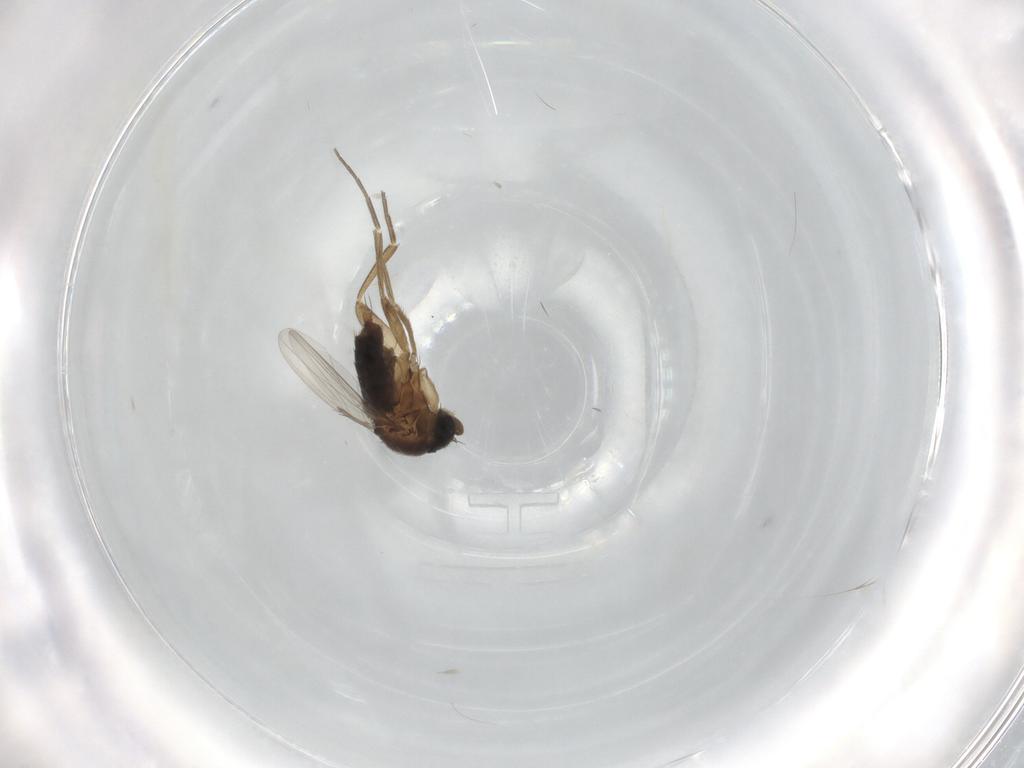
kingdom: Animalia
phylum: Arthropoda
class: Insecta
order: Diptera
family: Phoridae
